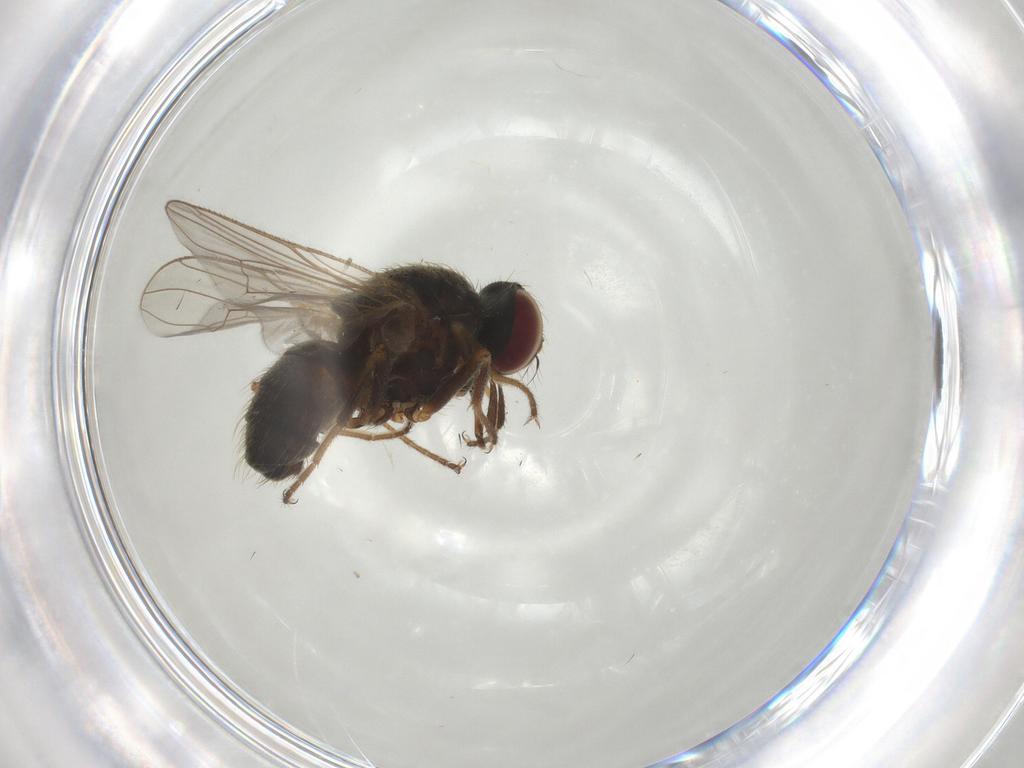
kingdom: Animalia
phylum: Arthropoda
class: Insecta
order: Diptera
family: Muscidae
